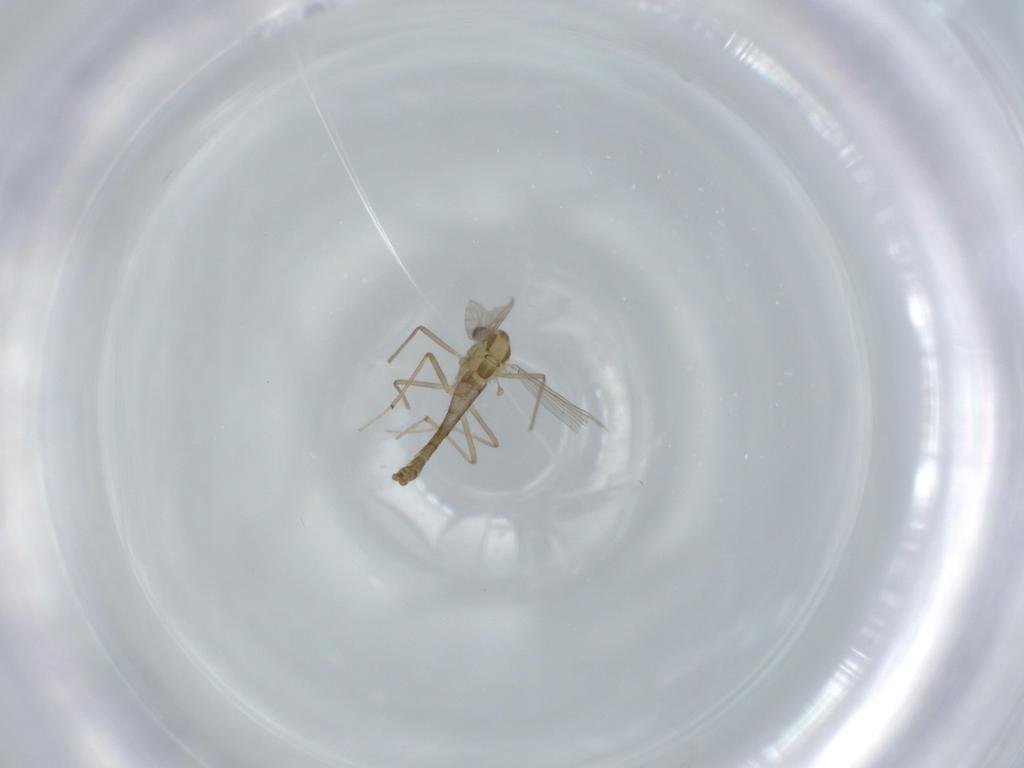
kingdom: Animalia
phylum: Arthropoda
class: Insecta
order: Diptera
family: Chironomidae
